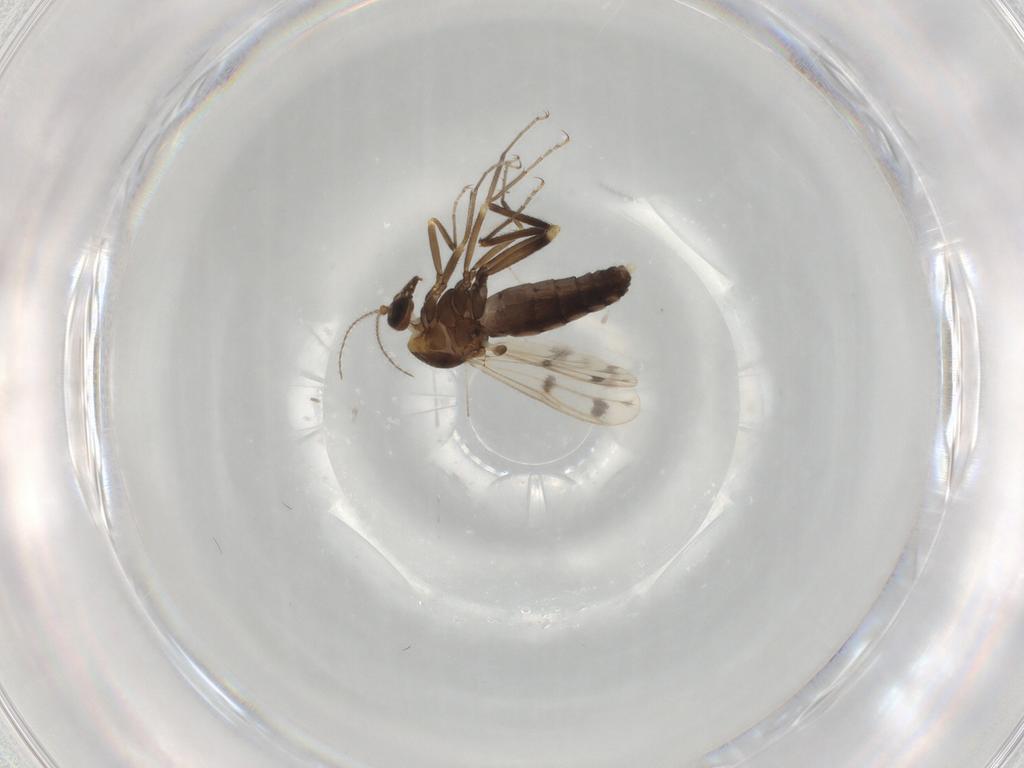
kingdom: Animalia
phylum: Arthropoda
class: Insecta
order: Diptera
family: Ceratopogonidae
